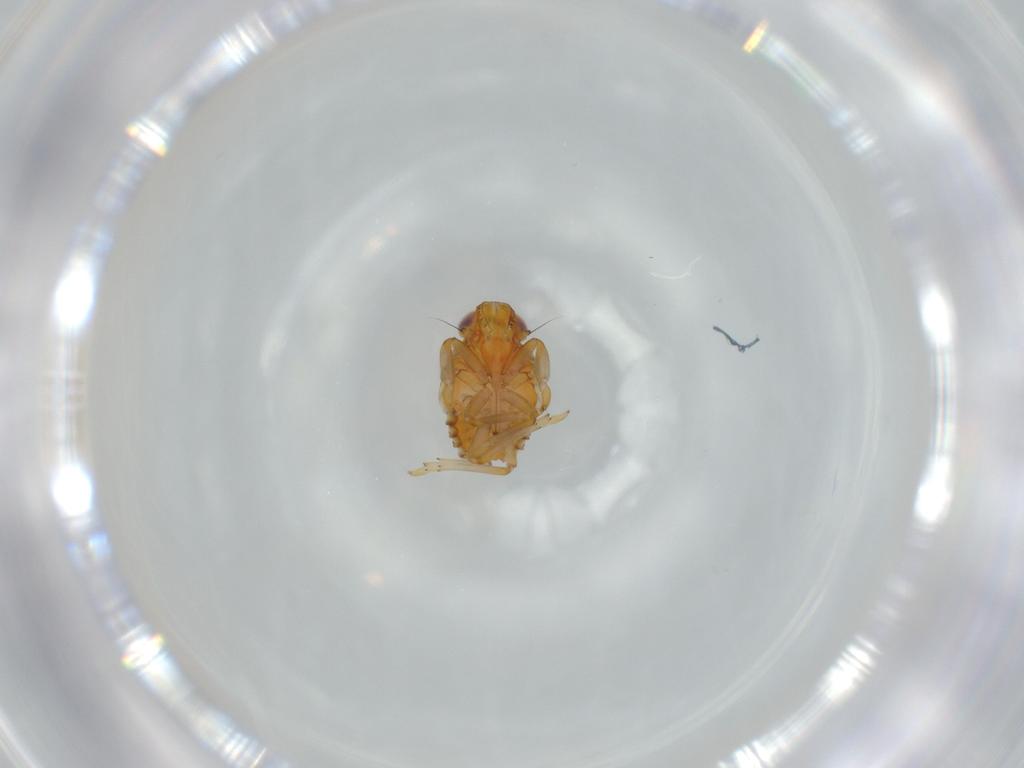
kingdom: Animalia
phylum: Arthropoda
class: Insecta
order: Hemiptera
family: Issidae
